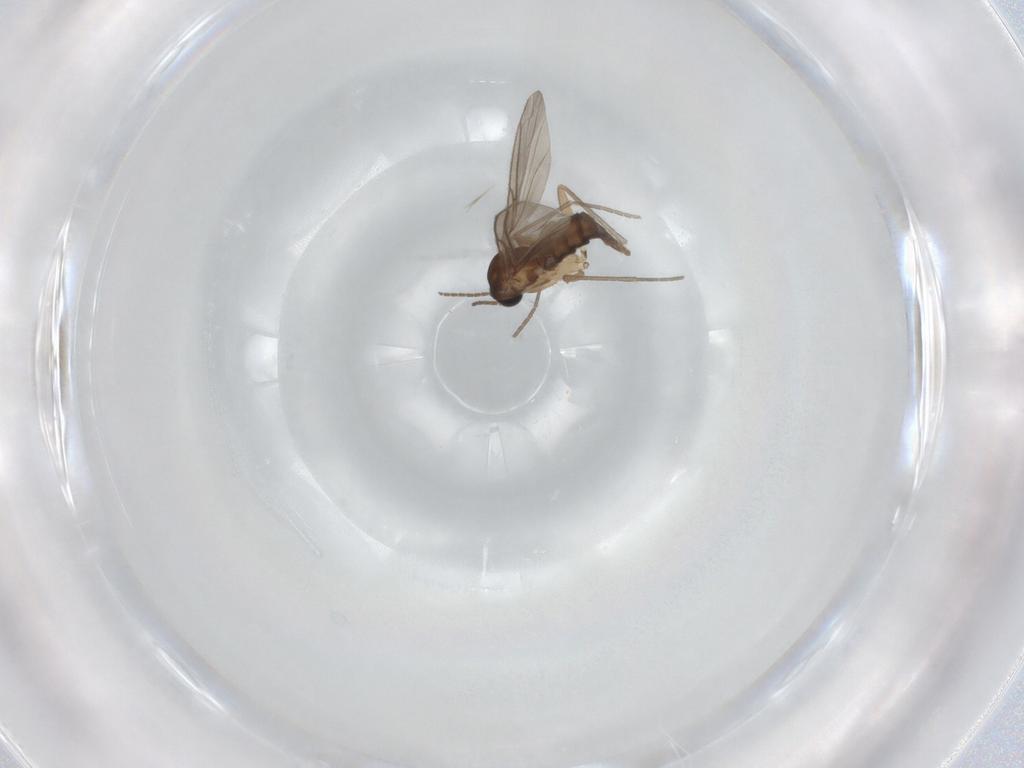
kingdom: Animalia
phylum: Arthropoda
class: Insecta
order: Diptera
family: Sciaridae
